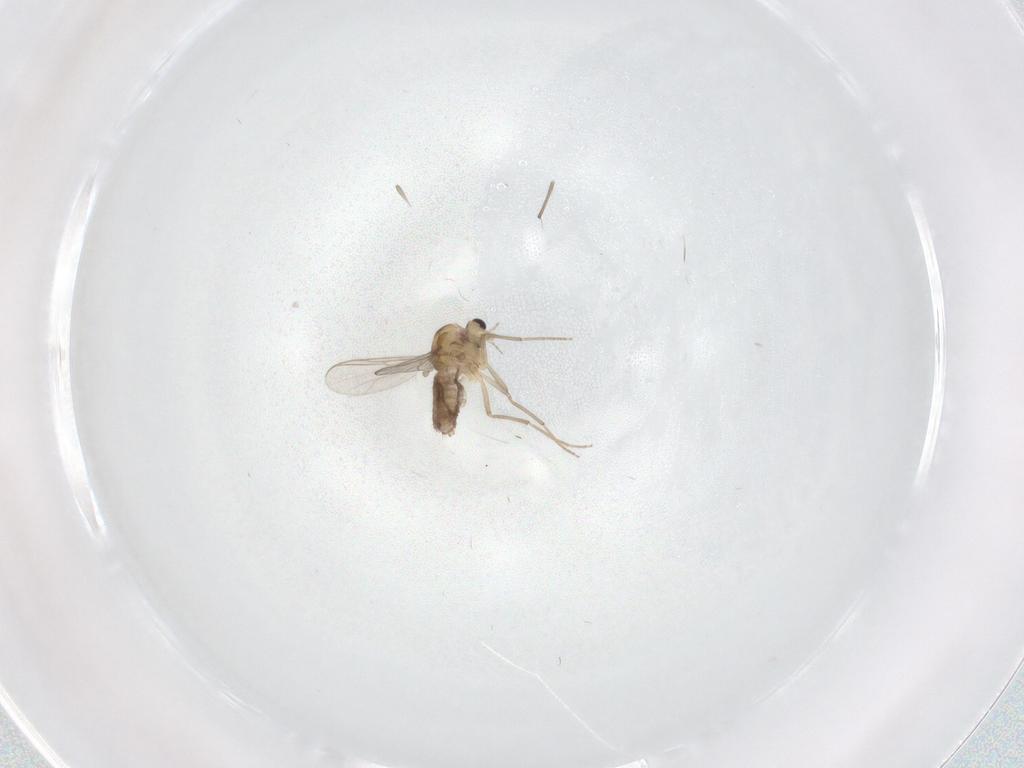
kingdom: Animalia
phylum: Arthropoda
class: Insecta
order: Diptera
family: Chironomidae
